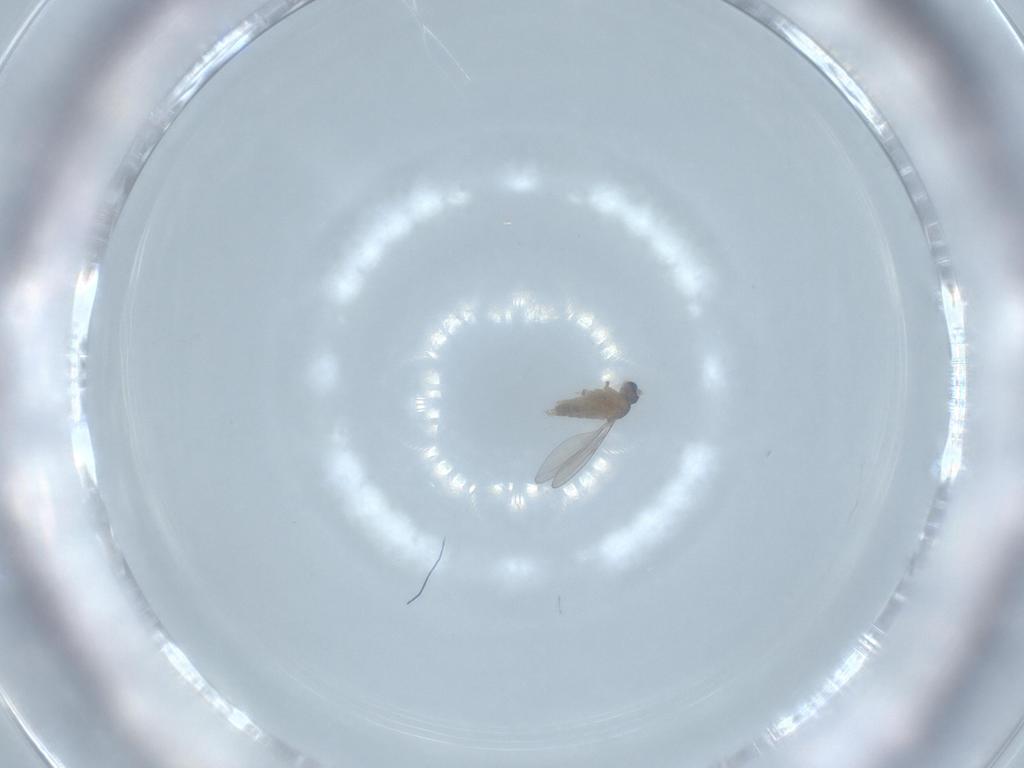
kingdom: Animalia
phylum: Arthropoda
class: Insecta
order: Diptera
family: Cecidomyiidae
